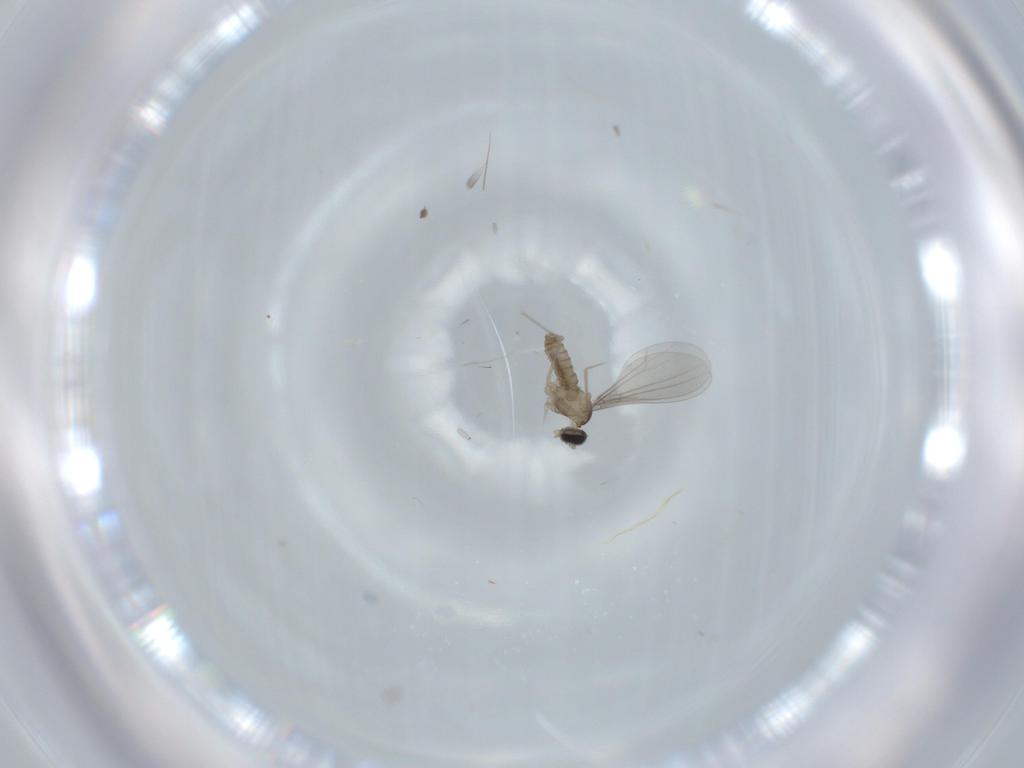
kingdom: Animalia
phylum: Arthropoda
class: Insecta
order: Diptera
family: Cecidomyiidae
